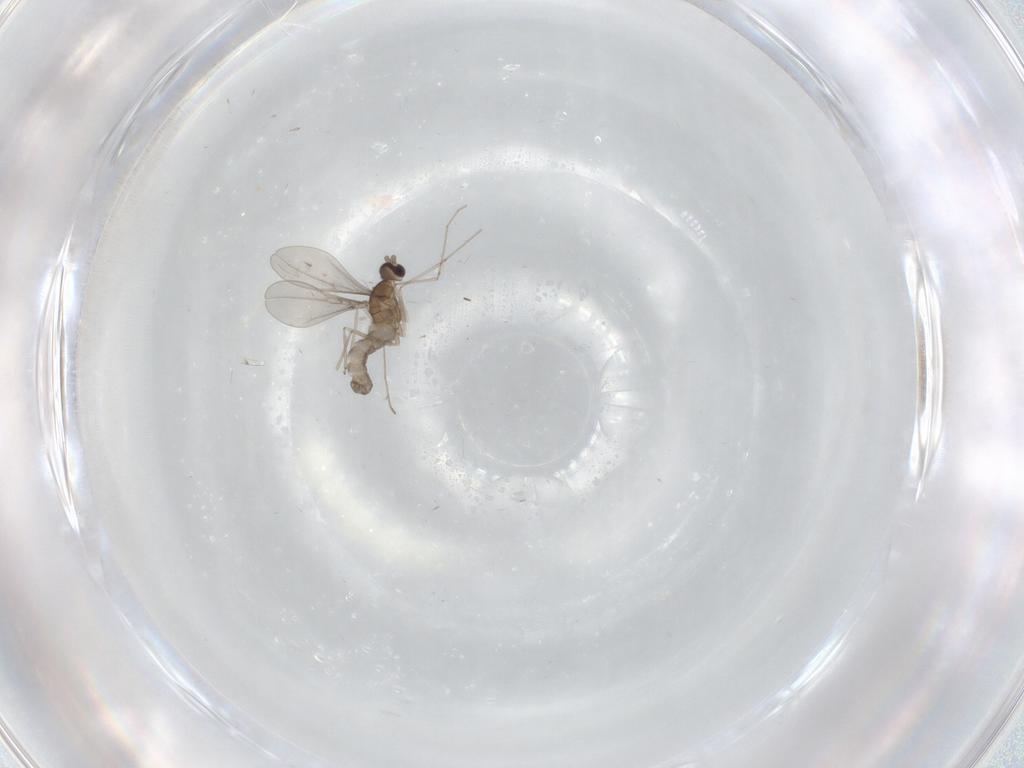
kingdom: Animalia
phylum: Arthropoda
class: Insecta
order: Diptera
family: Cecidomyiidae
